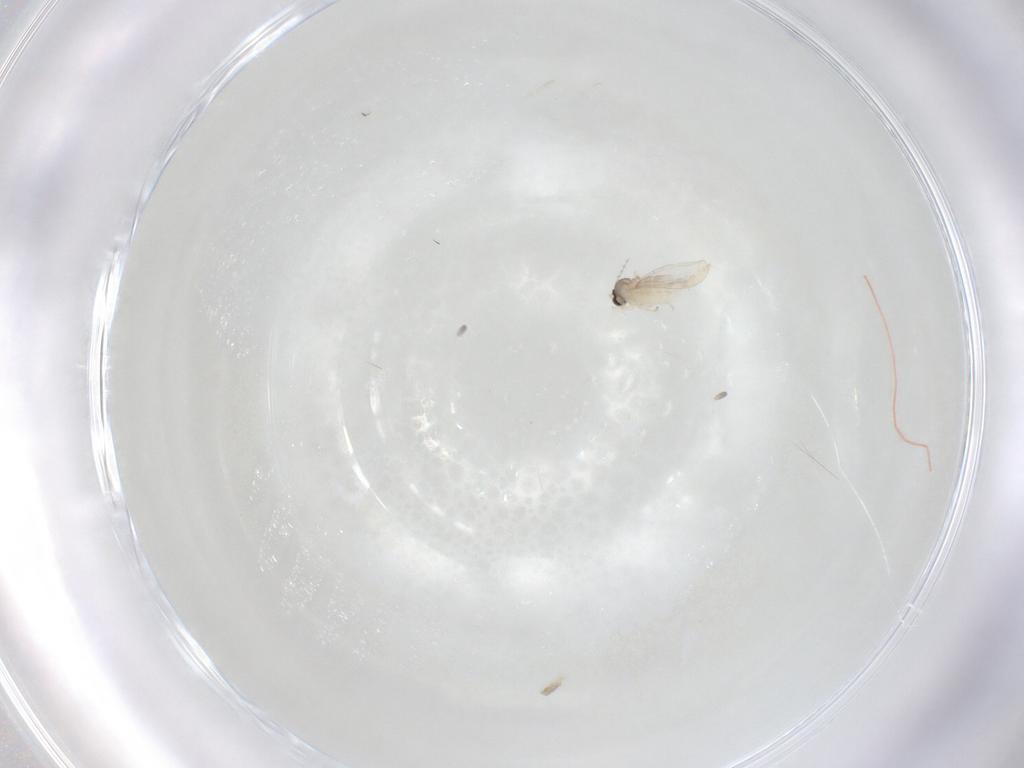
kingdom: Animalia
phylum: Arthropoda
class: Insecta
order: Diptera
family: Cecidomyiidae
